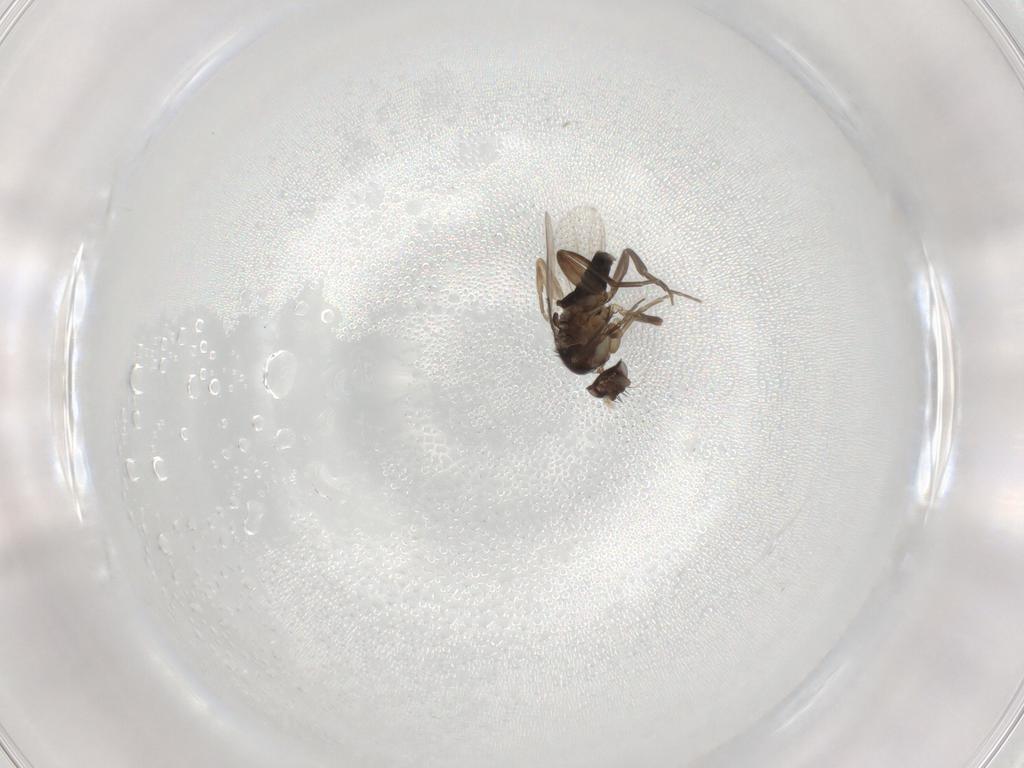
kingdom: Animalia
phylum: Arthropoda
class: Insecta
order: Diptera
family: Phoridae
